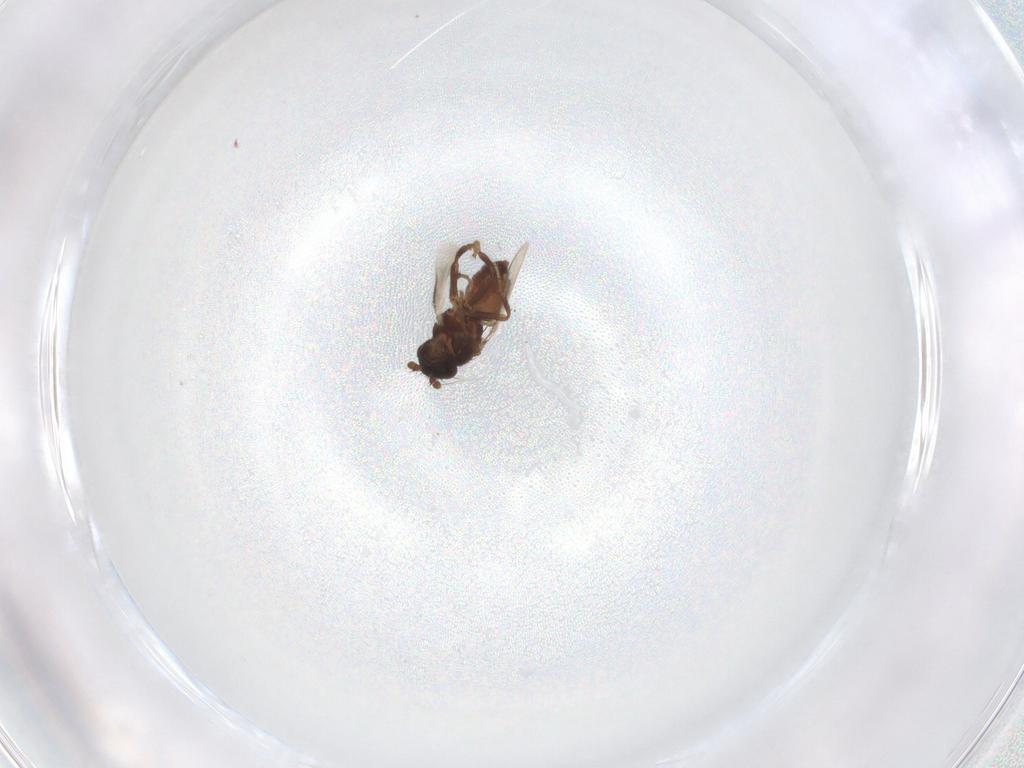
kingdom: Animalia
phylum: Arthropoda
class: Insecta
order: Diptera
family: Sphaeroceridae
